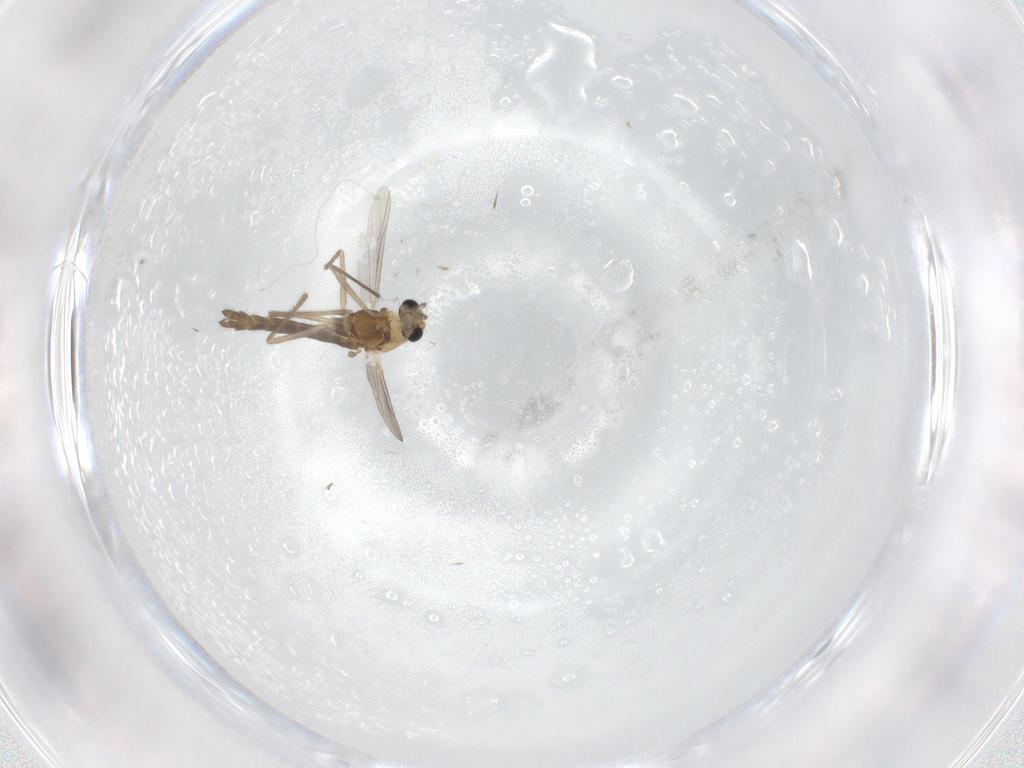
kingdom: Animalia
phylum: Arthropoda
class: Insecta
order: Diptera
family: Chironomidae
